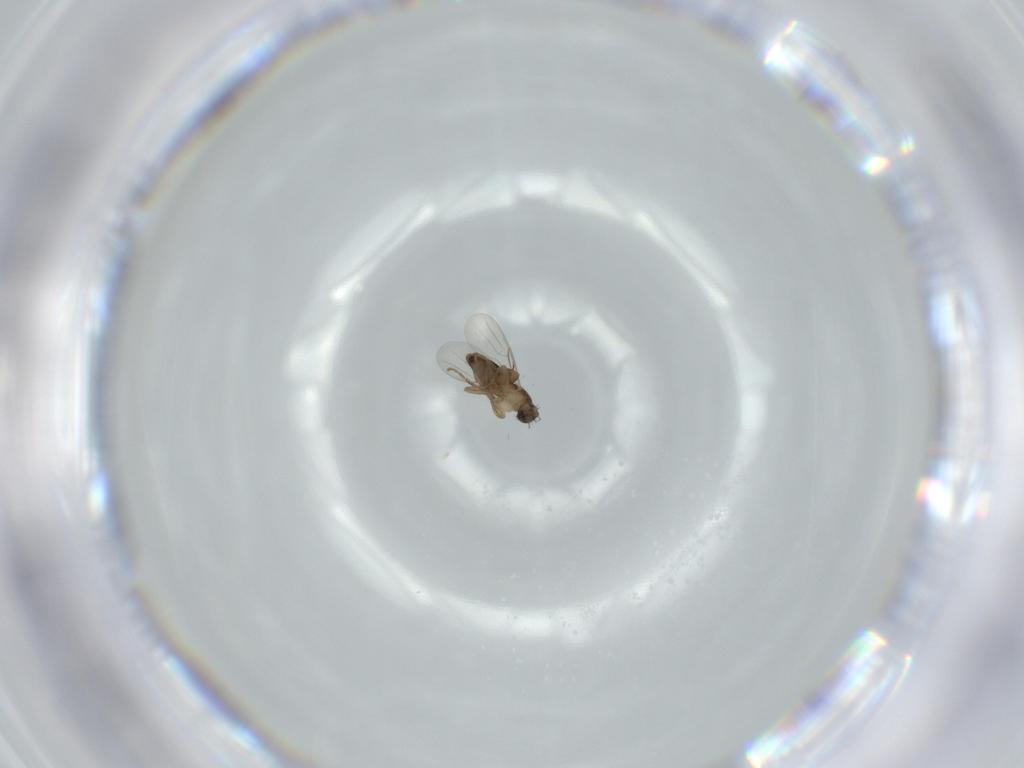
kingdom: Animalia
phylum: Arthropoda
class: Insecta
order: Diptera
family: Phoridae
